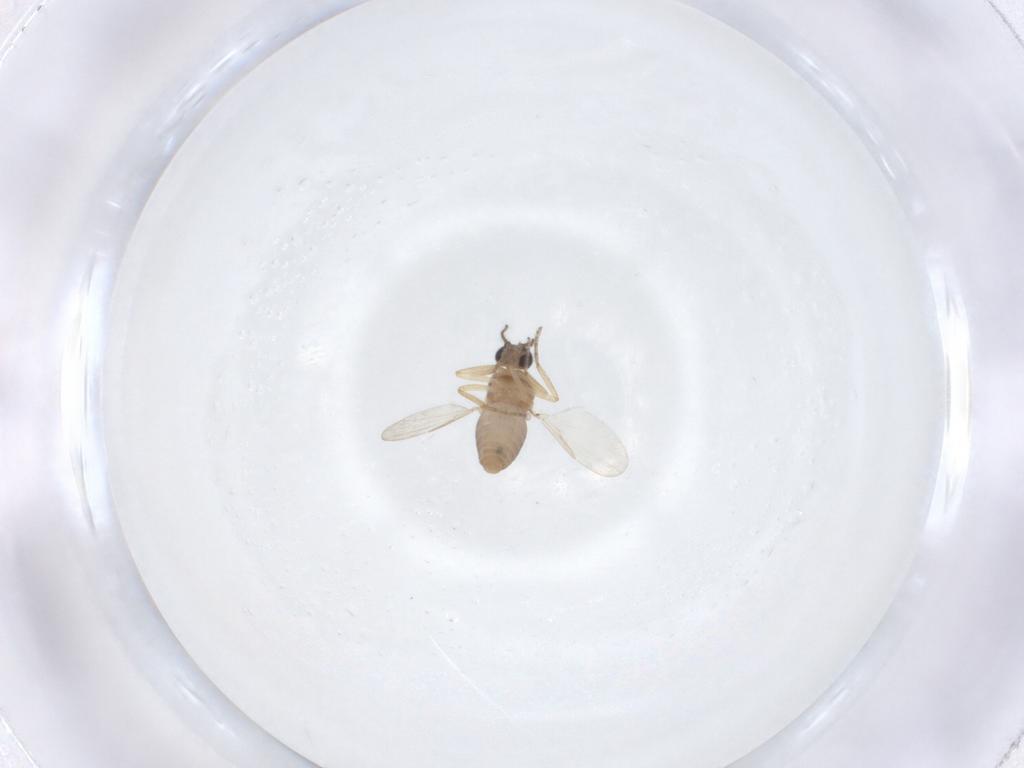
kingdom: Animalia
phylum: Arthropoda
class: Insecta
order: Diptera
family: Ceratopogonidae
